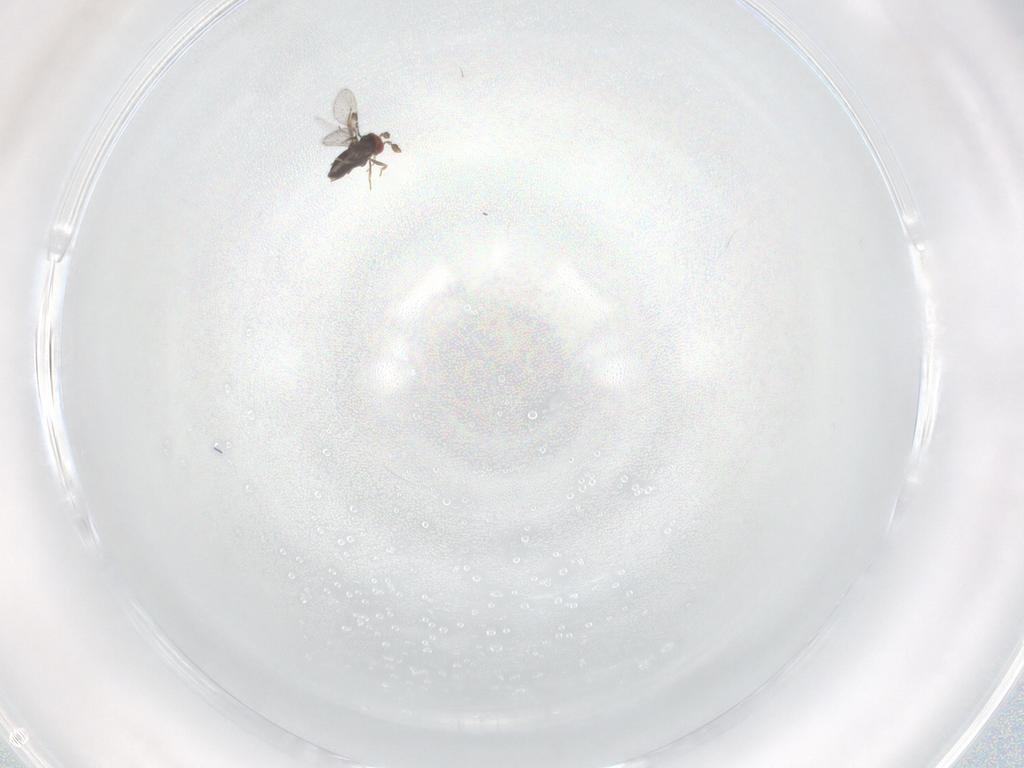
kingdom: Animalia
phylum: Arthropoda
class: Insecta
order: Hymenoptera
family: Trichogrammatidae
